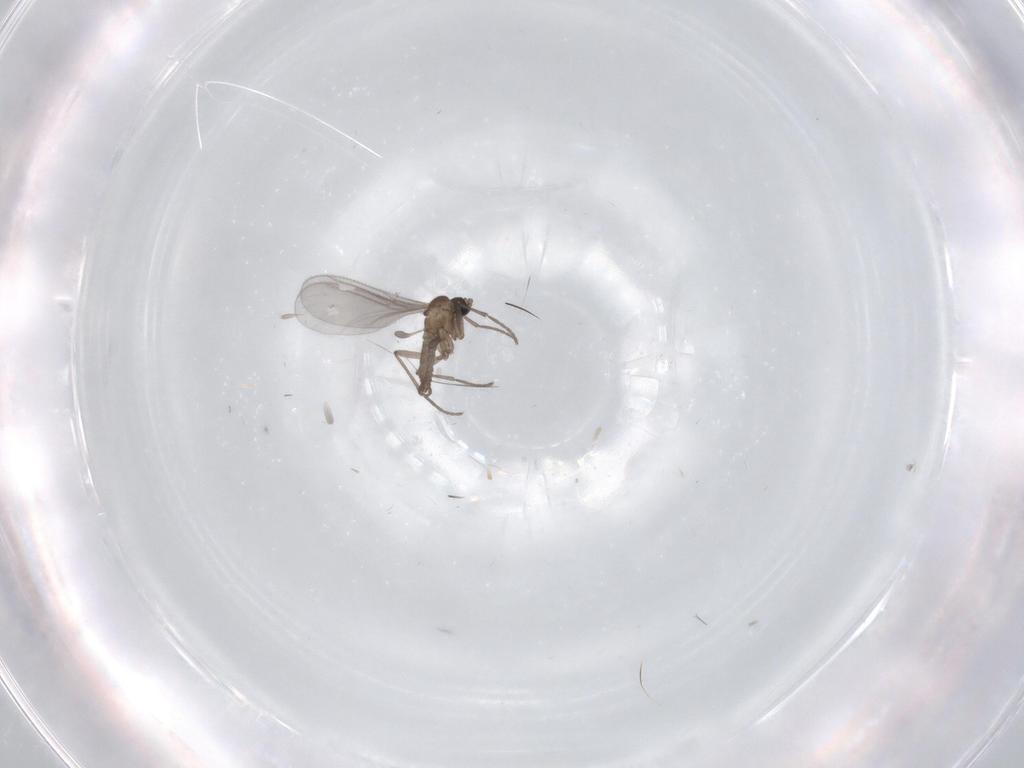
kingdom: Animalia
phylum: Arthropoda
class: Insecta
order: Diptera
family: Sciaridae
